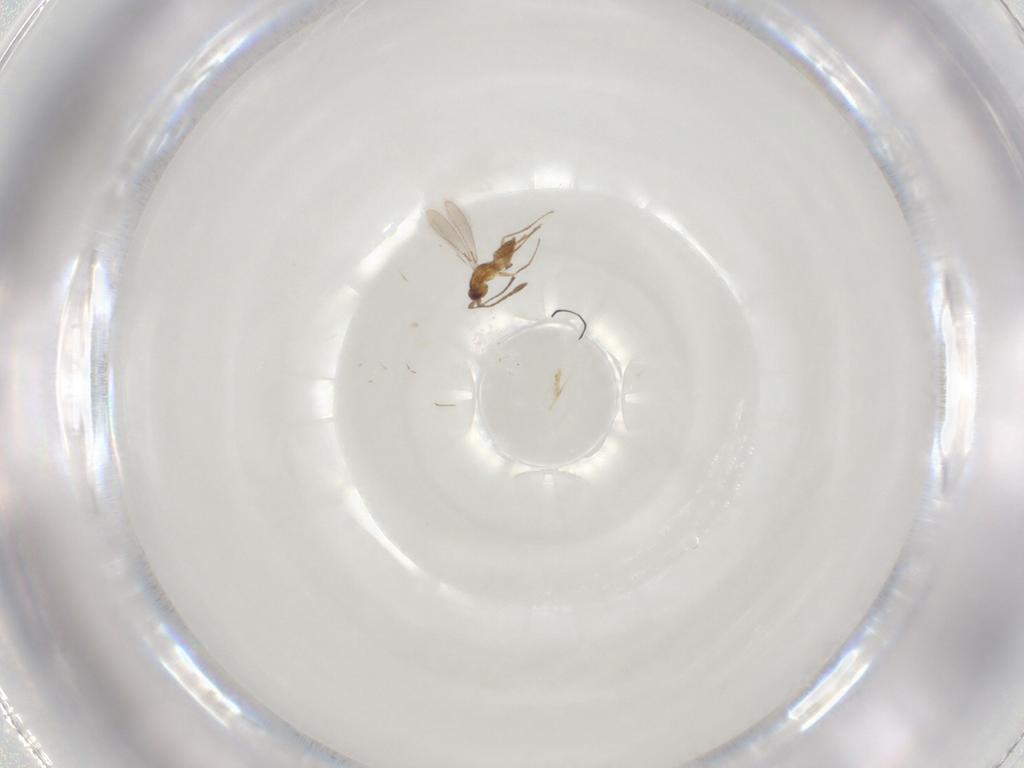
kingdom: Animalia
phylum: Arthropoda
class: Insecta
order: Hymenoptera
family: Mymaridae
